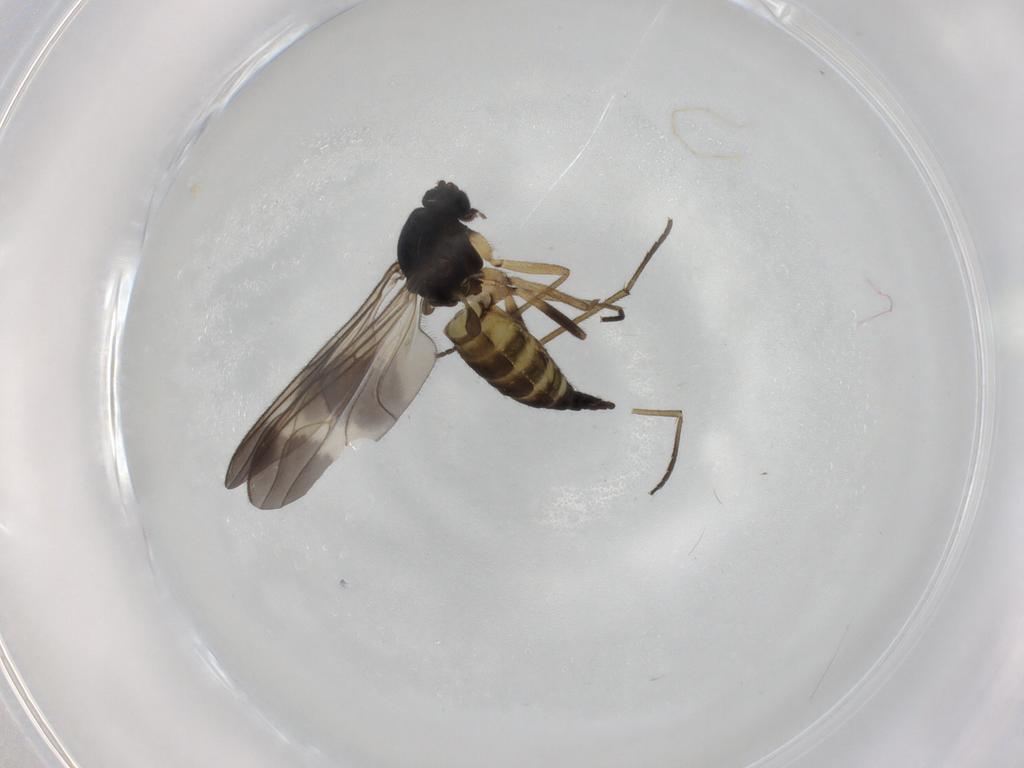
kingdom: Animalia
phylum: Arthropoda
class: Insecta
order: Diptera
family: Sciaridae
